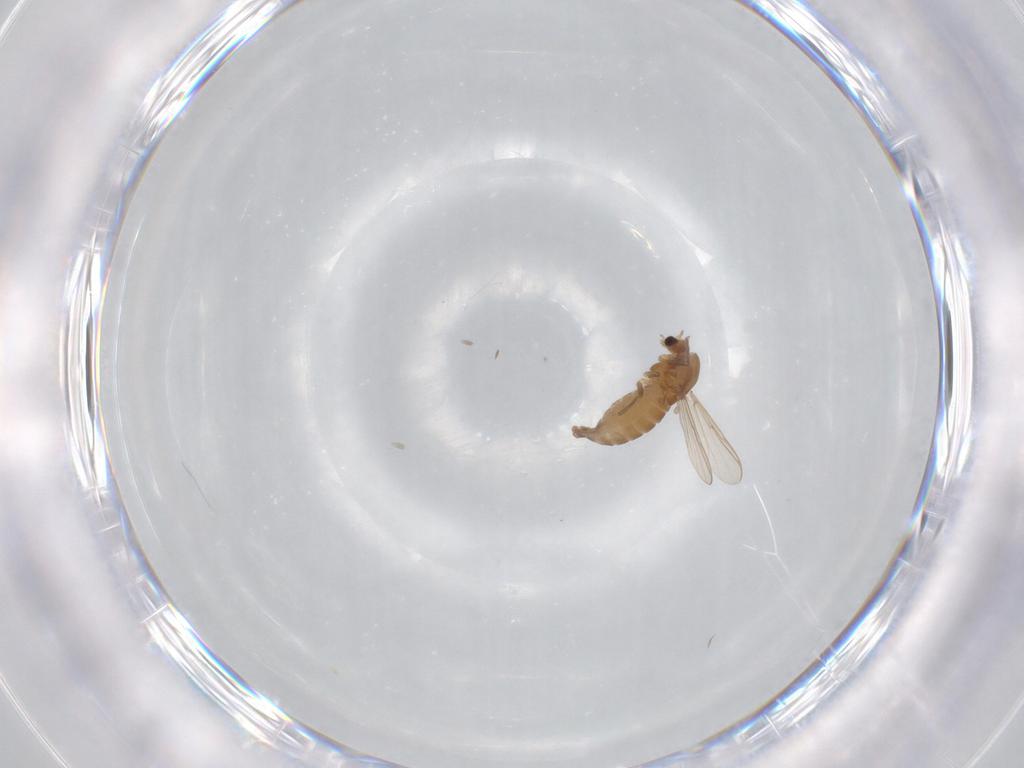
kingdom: Animalia
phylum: Arthropoda
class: Insecta
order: Diptera
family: Chironomidae
